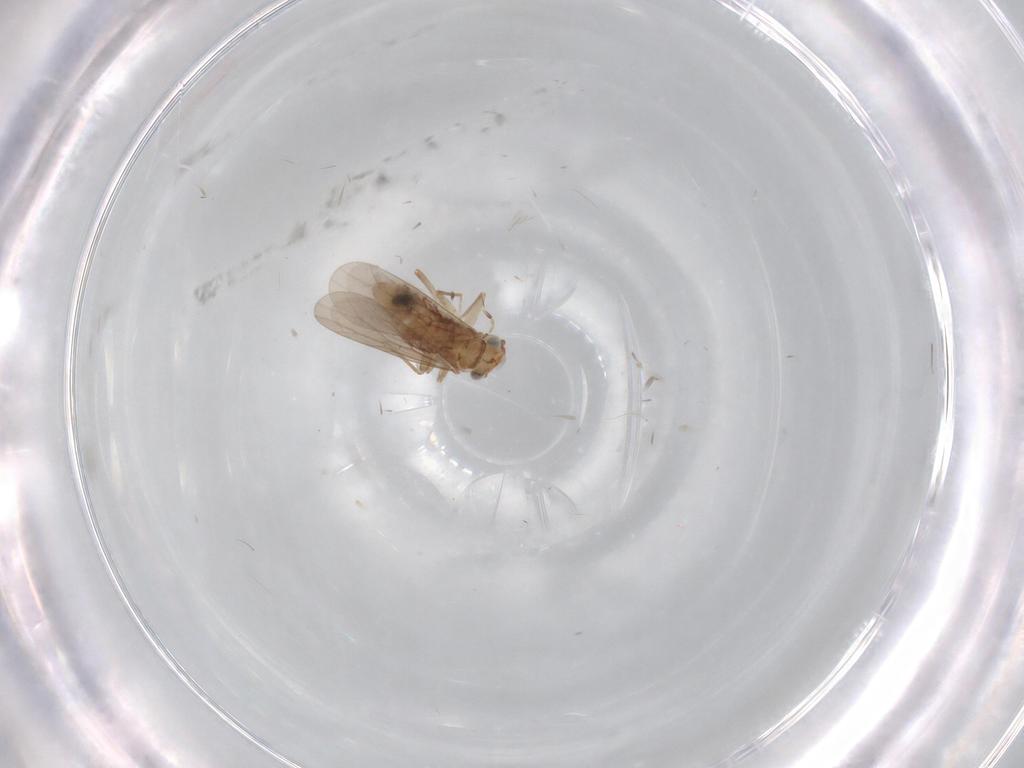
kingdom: Animalia
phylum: Arthropoda
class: Insecta
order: Psocodea
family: Lepidopsocidae
